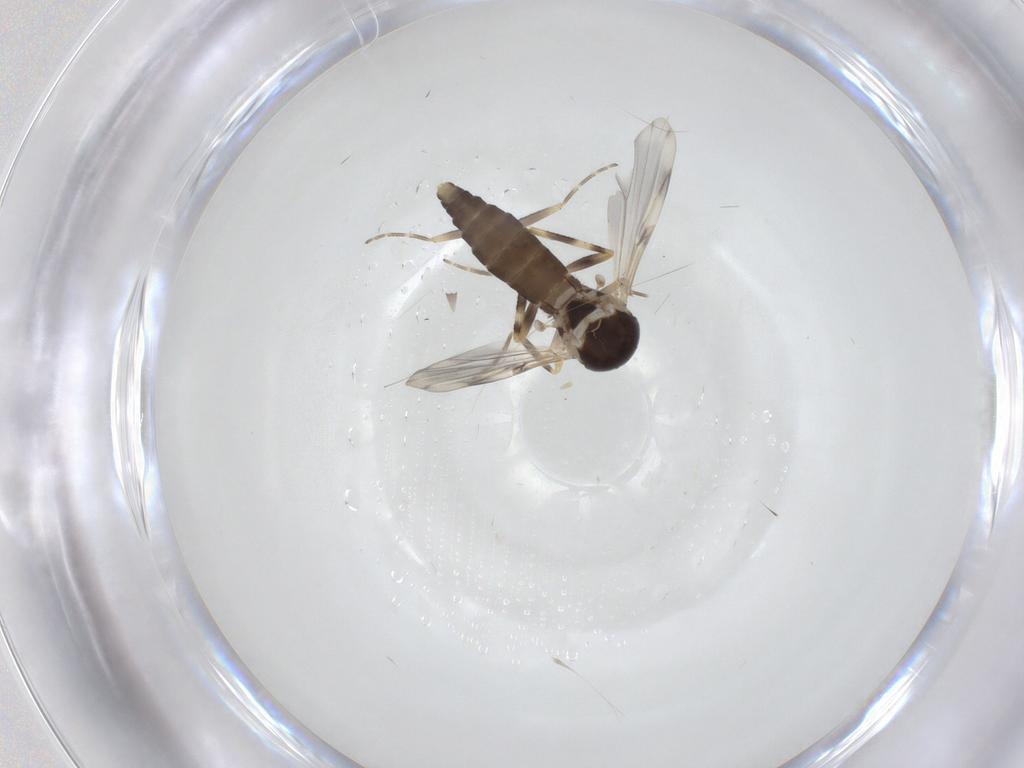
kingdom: Animalia
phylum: Arthropoda
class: Insecta
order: Diptera
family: Ceratopogonidae
